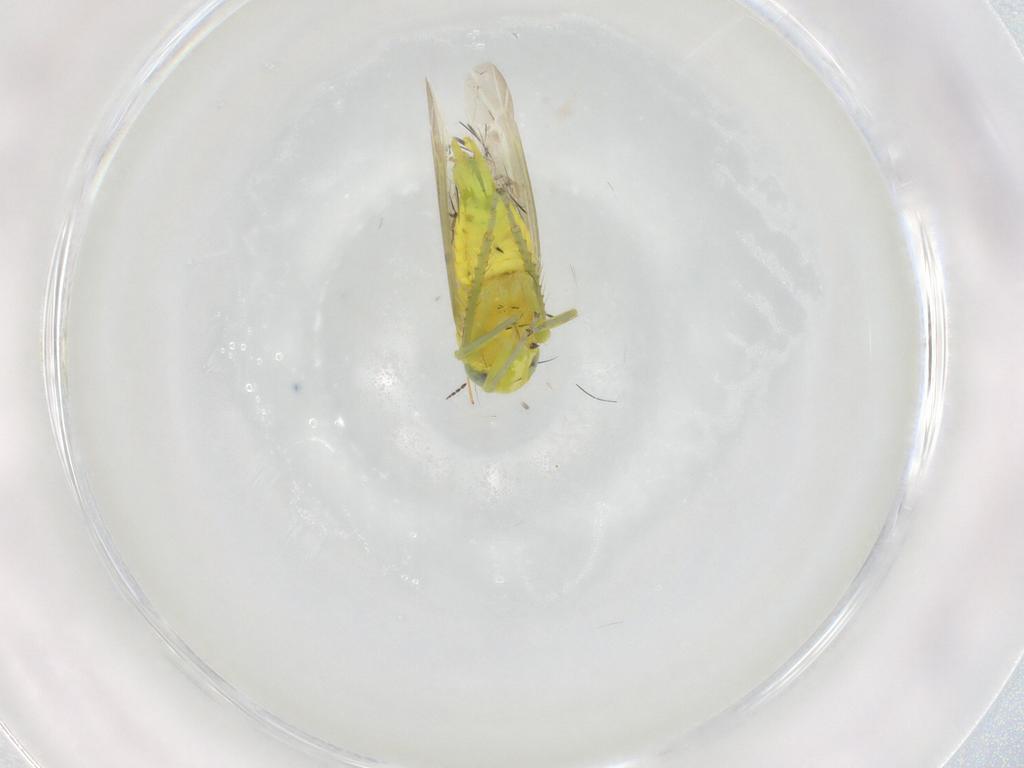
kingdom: Animalia
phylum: Arthropoda
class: Insecta
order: Hemiptera
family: Cicadellidae
